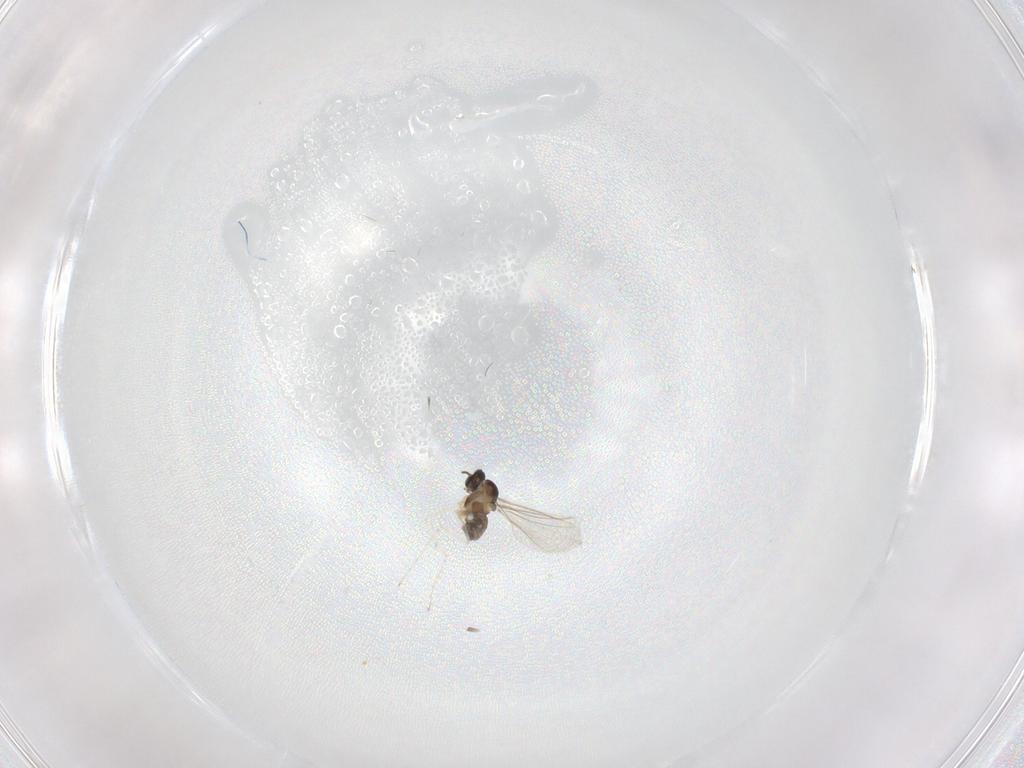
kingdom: Animalia
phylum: Arthropoda
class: Insecta
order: Diptera
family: Cecidomyiidae
